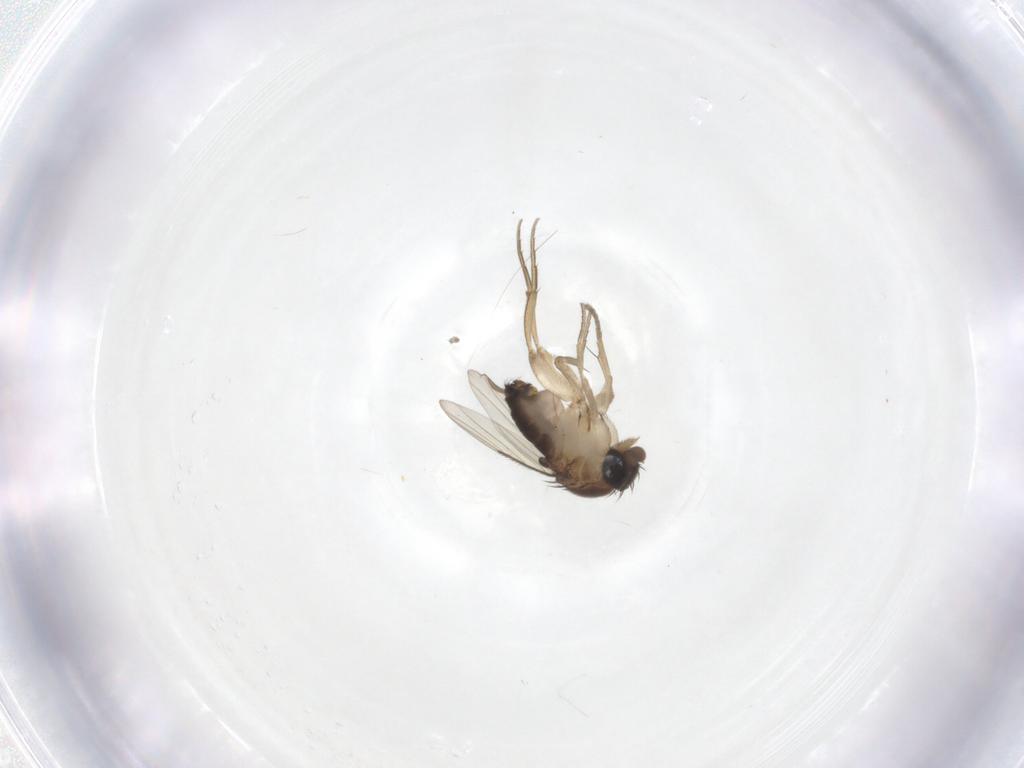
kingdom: Animalia
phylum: Arthropoda
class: Insecta
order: Diptera
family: Phoridae
